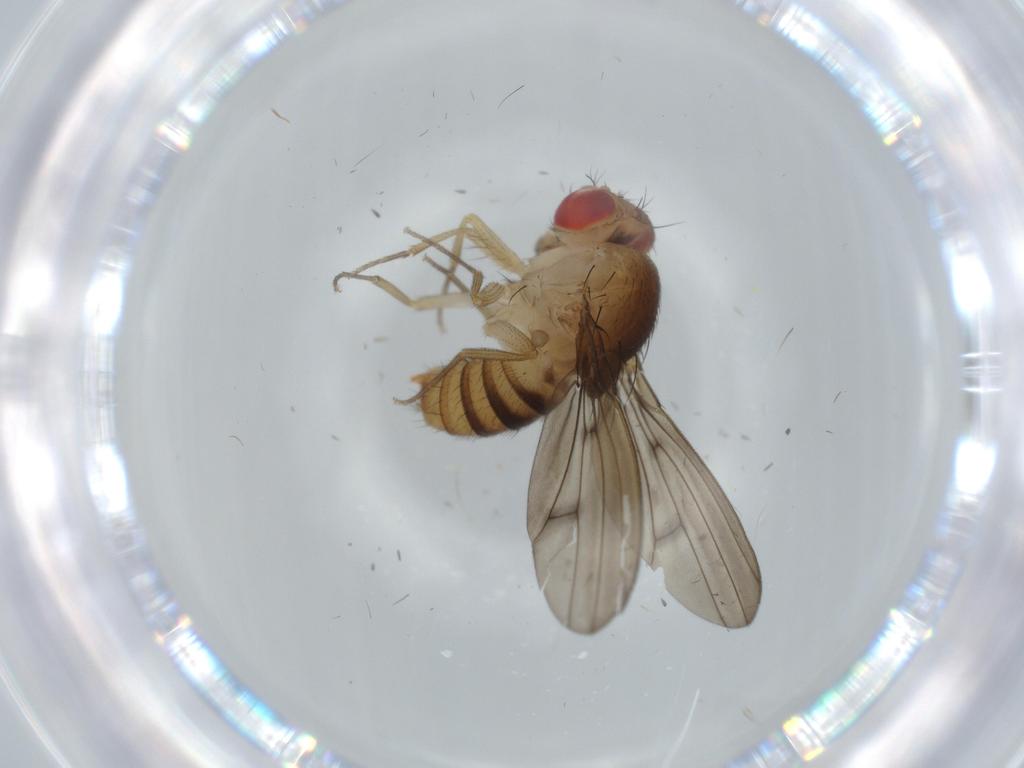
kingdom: Animalia
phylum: Arthropoda
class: Insecta
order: Diptera
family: Drosophilidae
